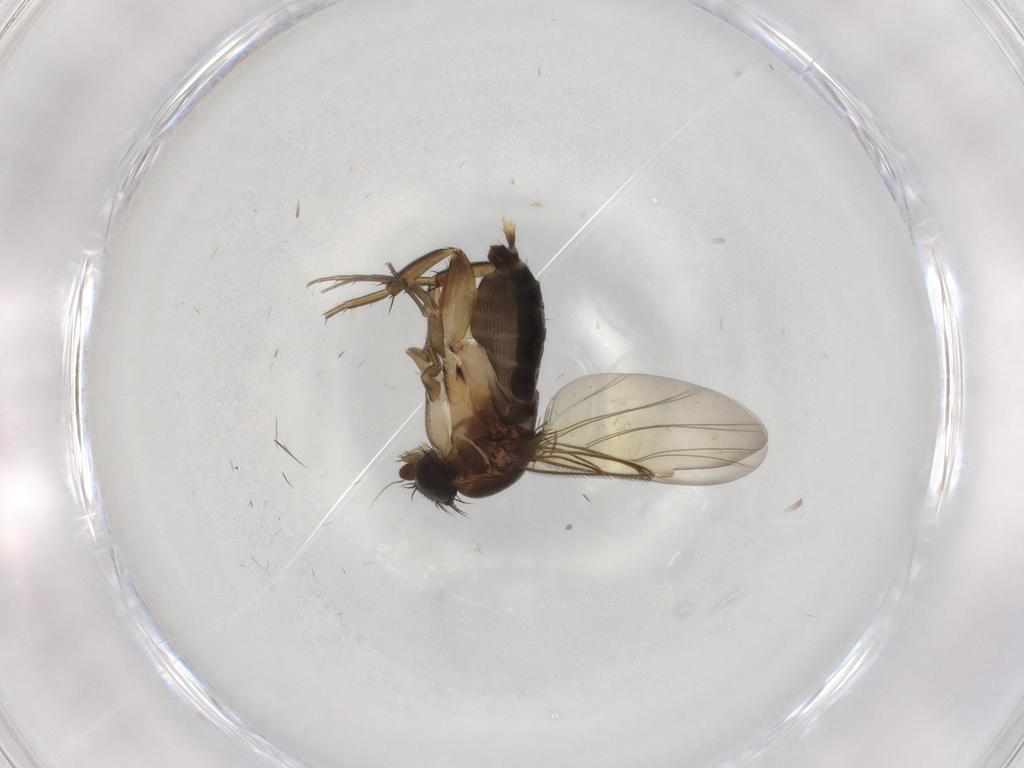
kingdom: Animalia
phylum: Arthropoda
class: Insecta
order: Diptera
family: Phoridae
